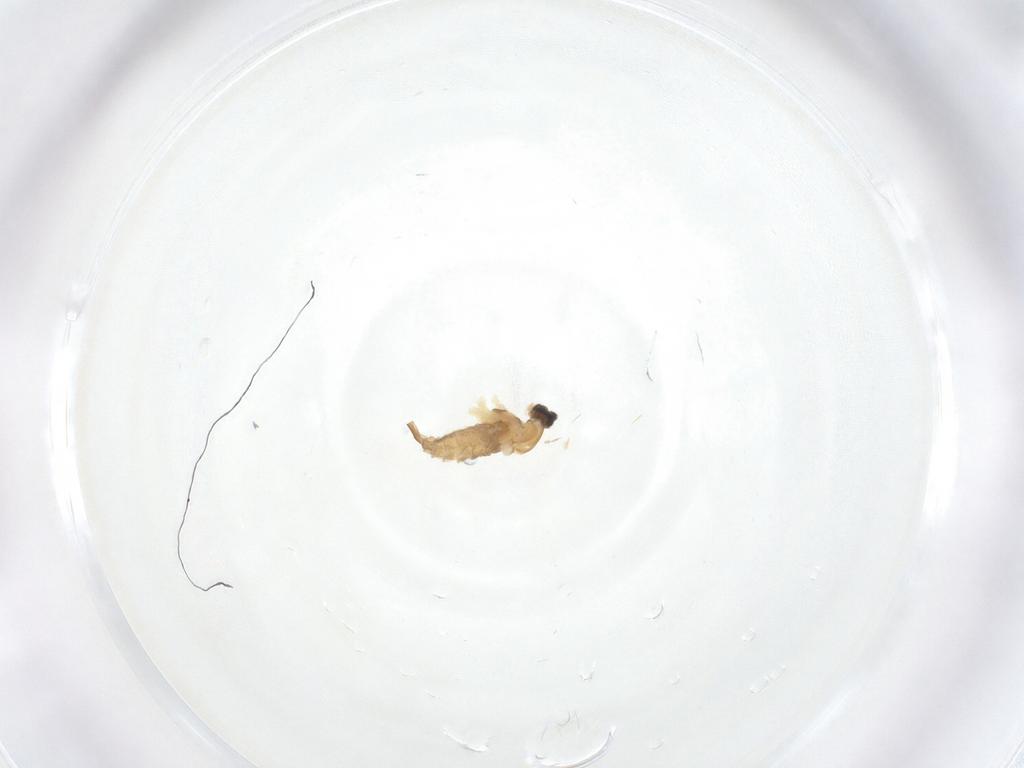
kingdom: Animalia
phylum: Arthropoda
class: Insecta
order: Diptera
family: Cecidomyiidae
